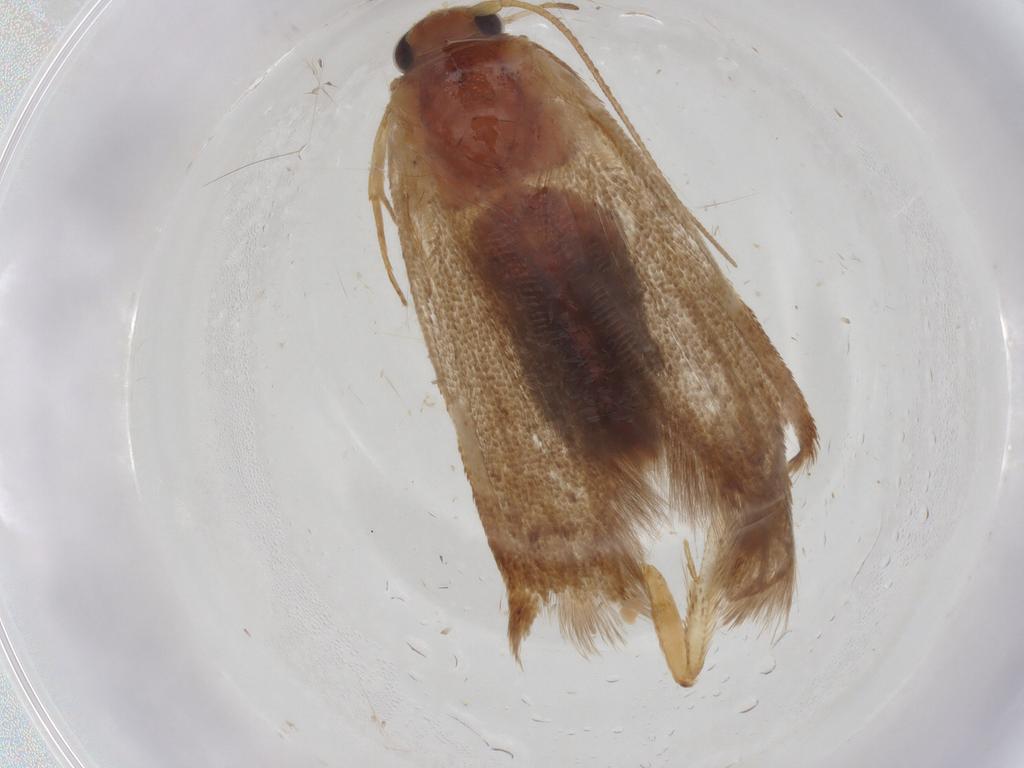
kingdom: Animalia
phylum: Arthropoda
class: Insecta
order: Lepidoptera
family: Blastobasidae
